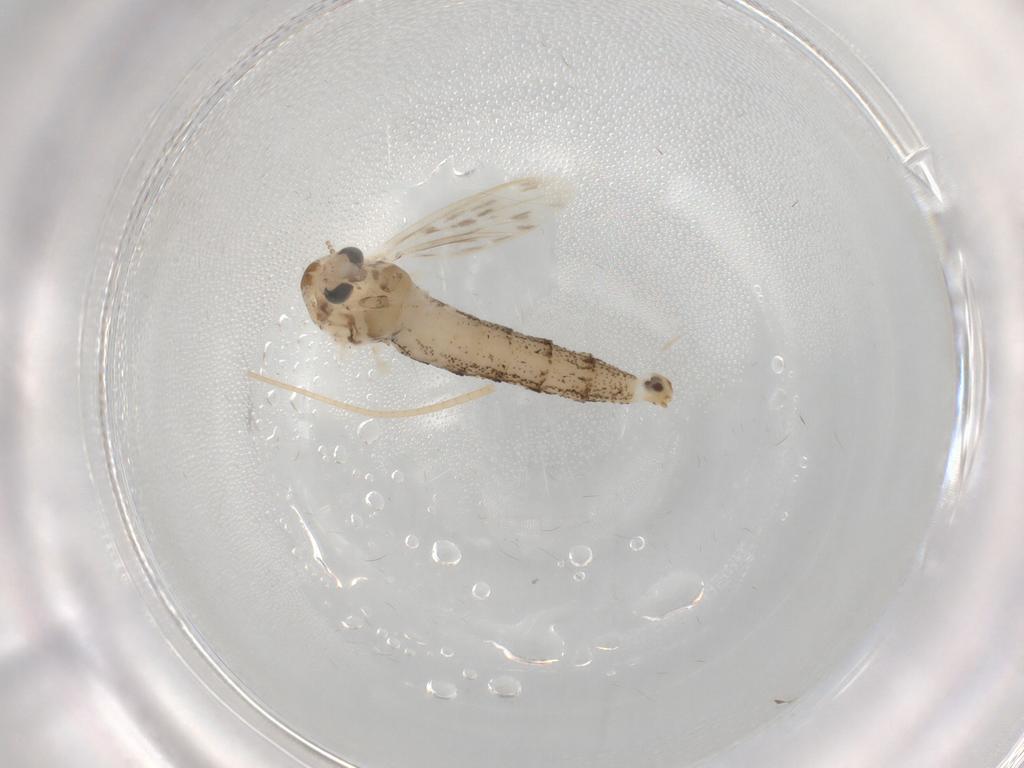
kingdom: Animalia
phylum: Arthropoda
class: Insecta
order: Diptera
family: Chaoboridae
